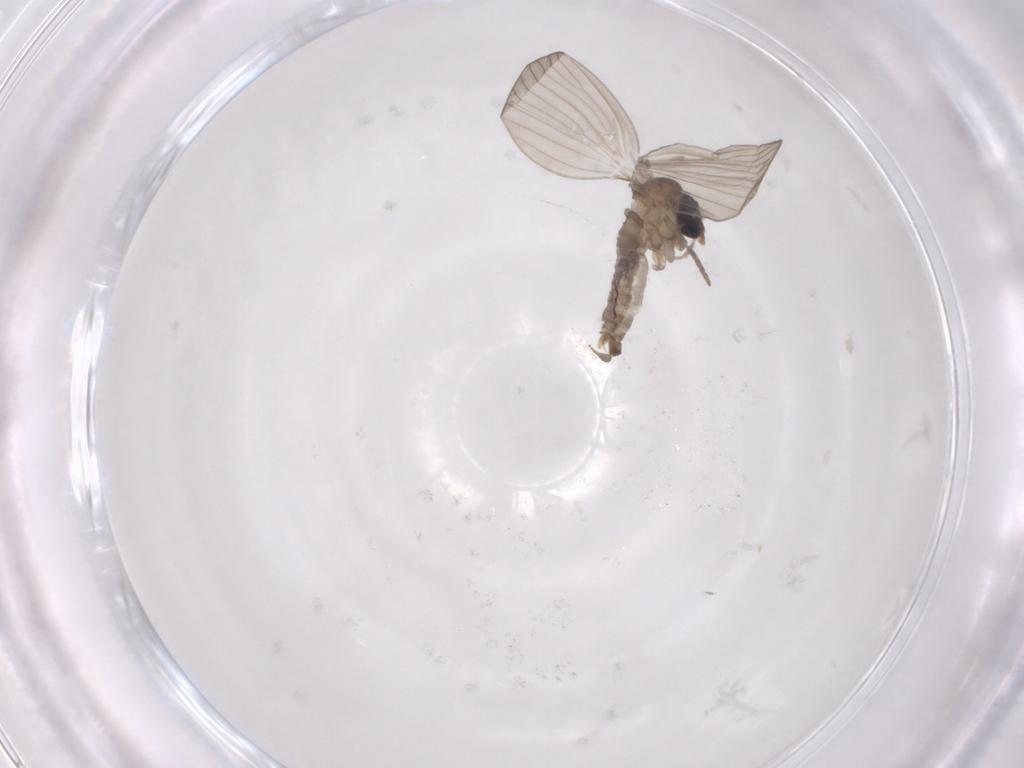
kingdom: Animalia
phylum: Arthropoda
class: Insecta
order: Diptera
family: Psychodidae
